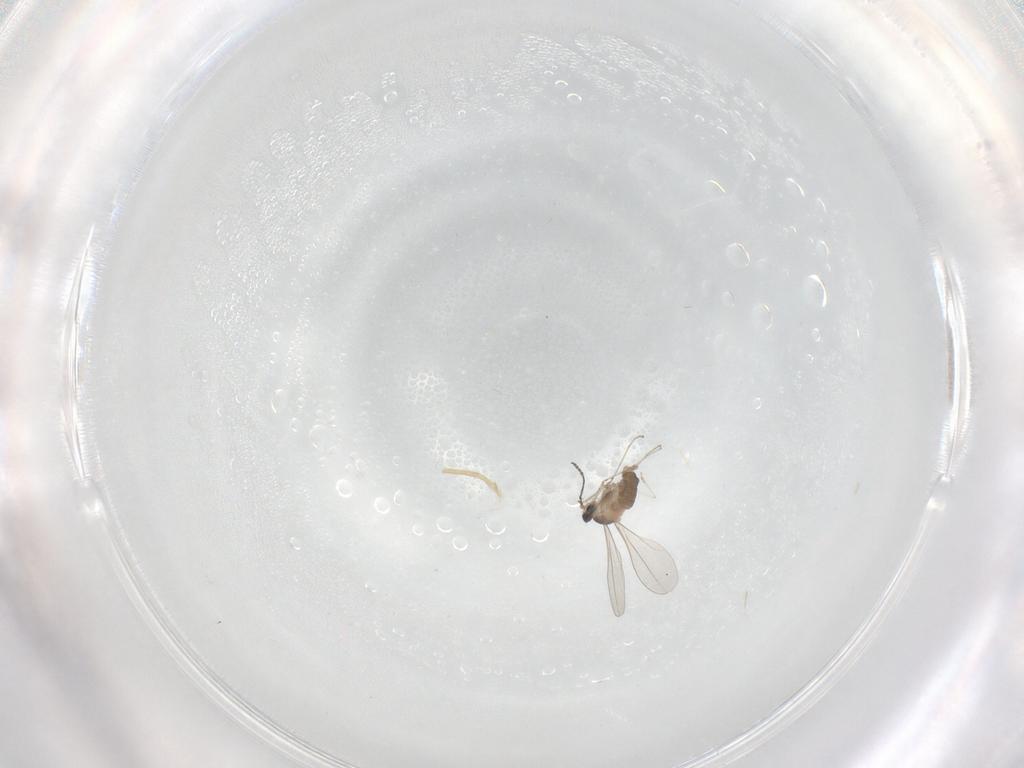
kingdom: Animalia
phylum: Arthropoda
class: Insecta
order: Diptera
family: Cecidomyiidae
